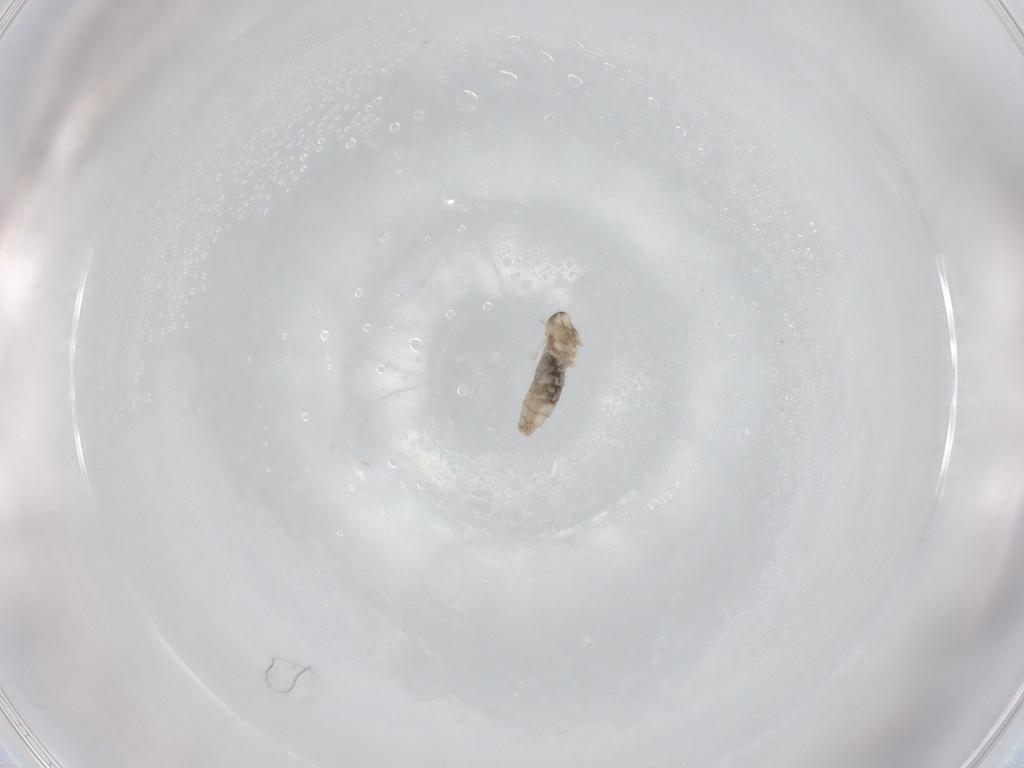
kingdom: Animalia
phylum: Arthropoda
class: Insecta
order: Diptera
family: Cecidomyiidae
